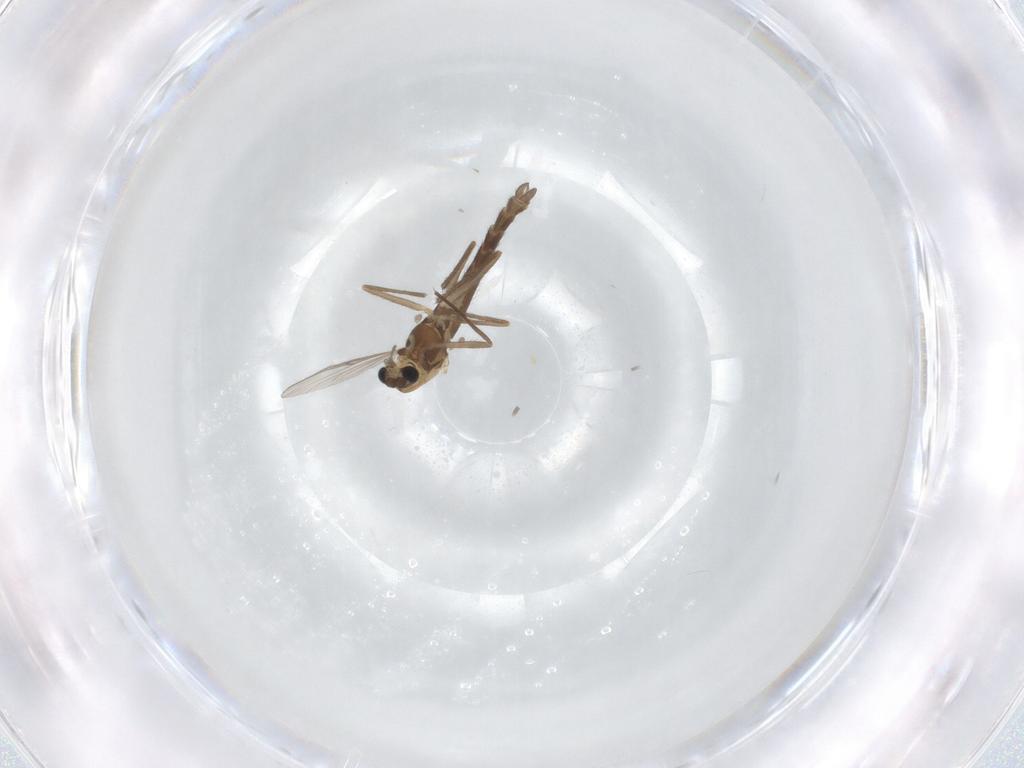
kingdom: Animalia
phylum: Arthropoda
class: Insecta
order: Diptera
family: Chironomidae
